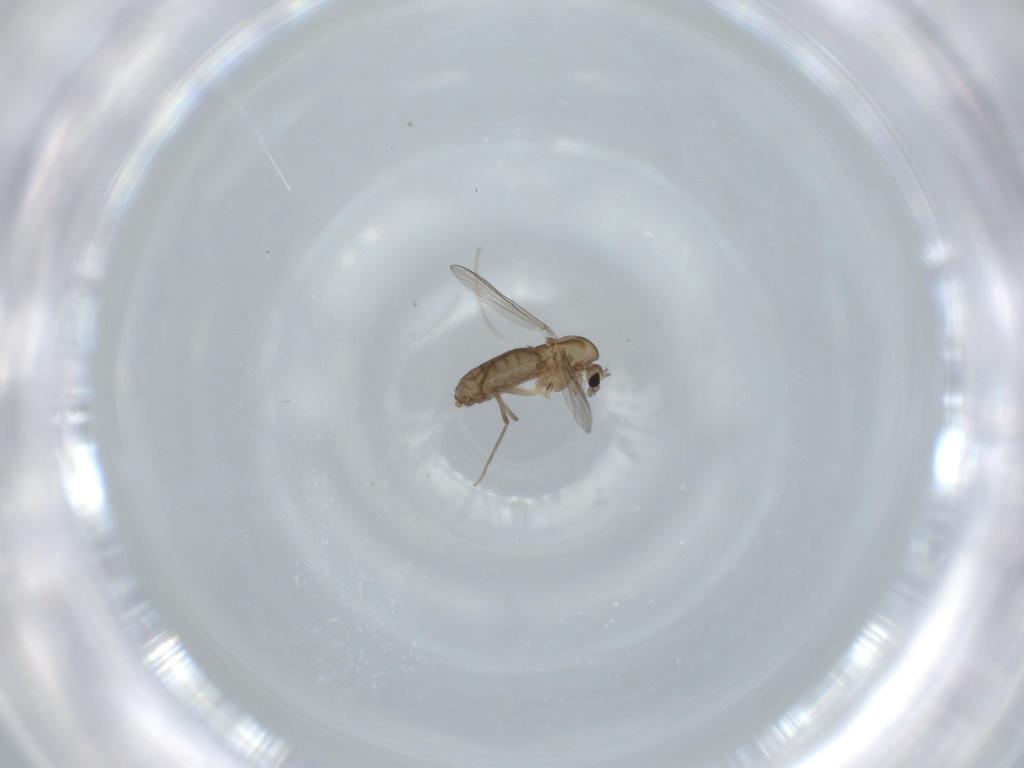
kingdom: Animalia
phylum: Arthropoda
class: Insecta
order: Diptera
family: Chironomidae
